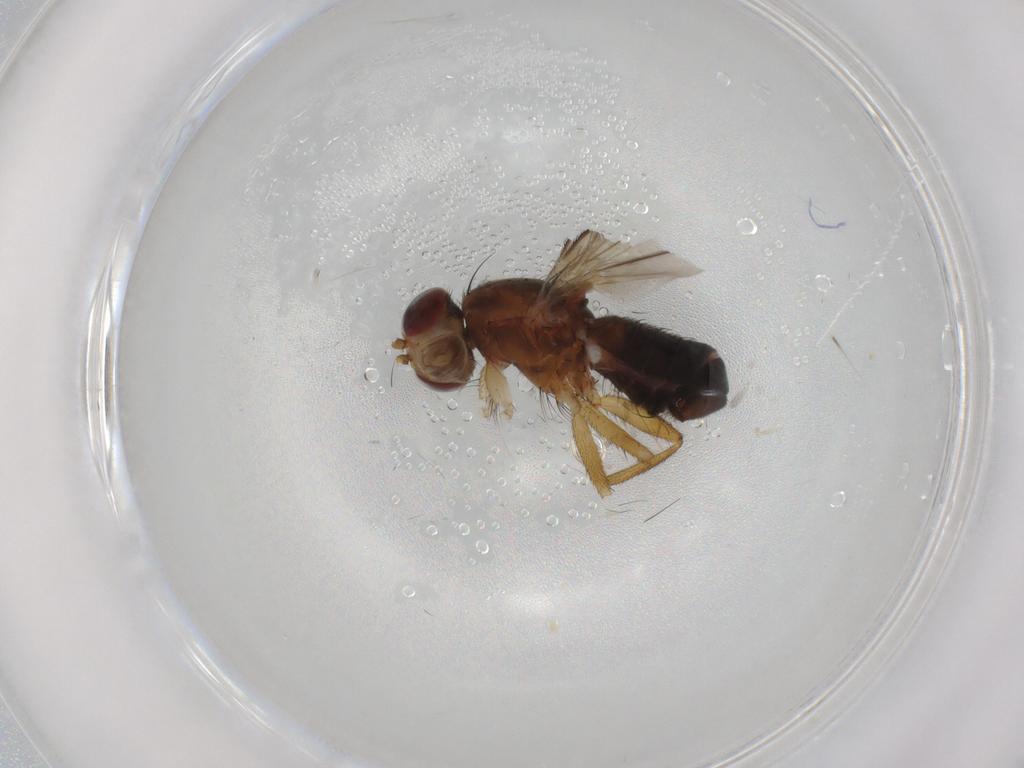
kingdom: Animalia
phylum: Arthropoda
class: Insecta
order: Diptera
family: Heleomyzidae
